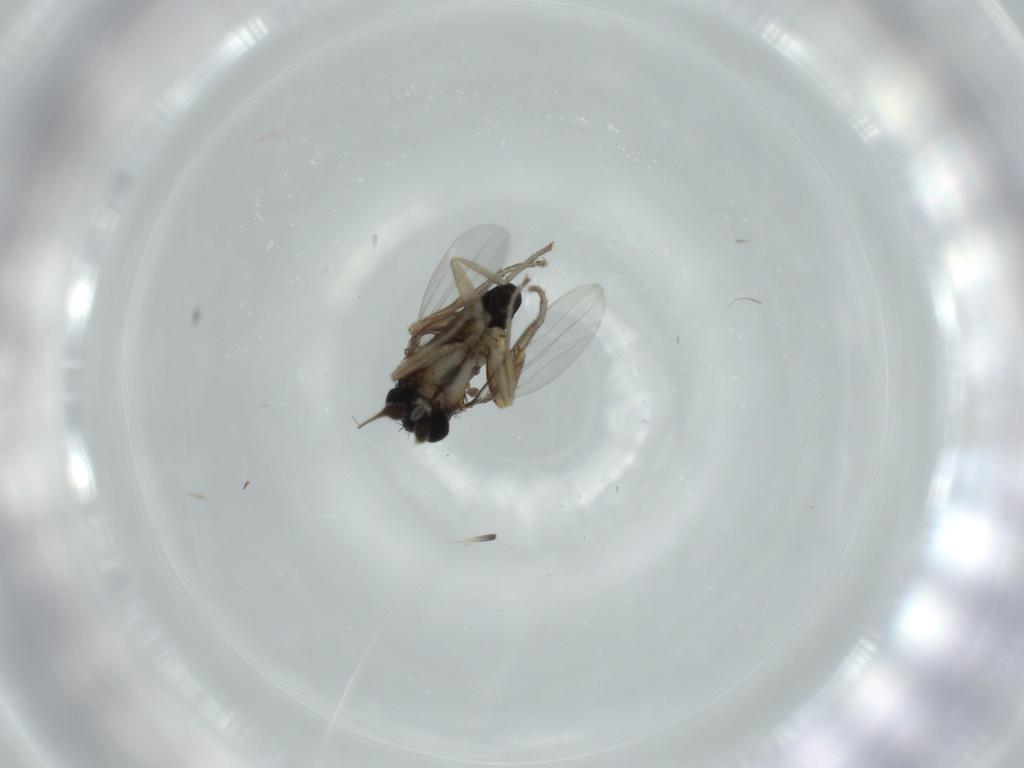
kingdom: Animalia
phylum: Arthropoda
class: Insecta
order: Diptera
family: Phoridae
